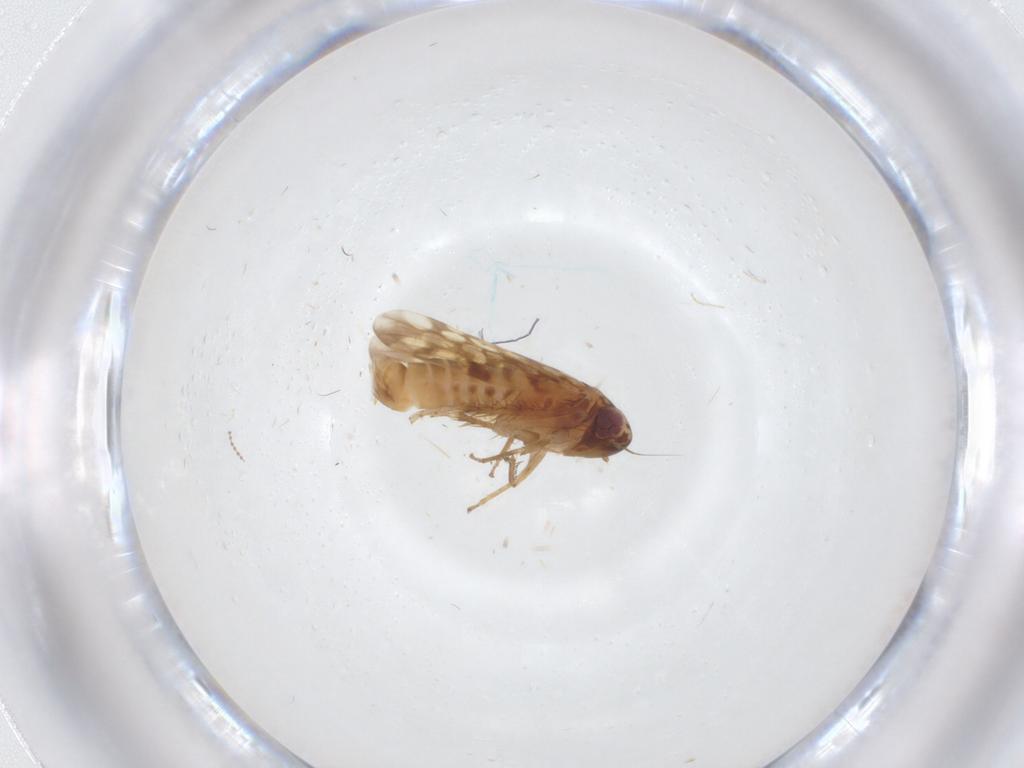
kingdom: Animalia
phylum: Arthropoda
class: Insecta
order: Hemiptera
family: Cicadellidae
